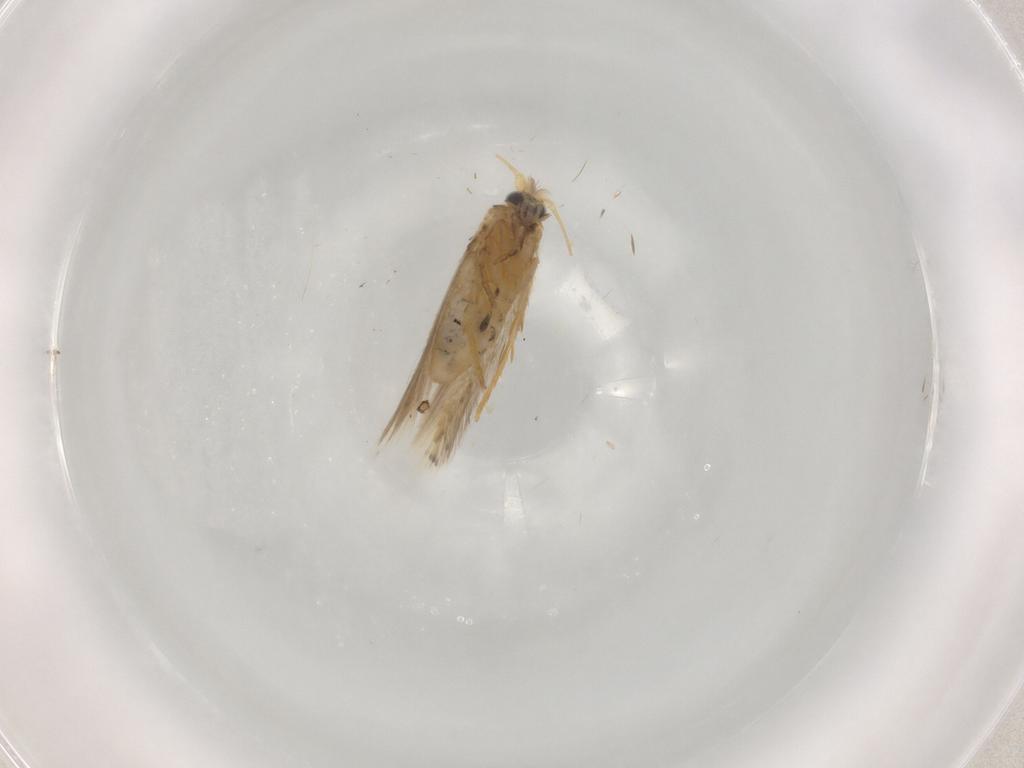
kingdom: Animalia
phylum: Arthropoda
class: Insecta
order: Lepidoptera
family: Nepticulidae
